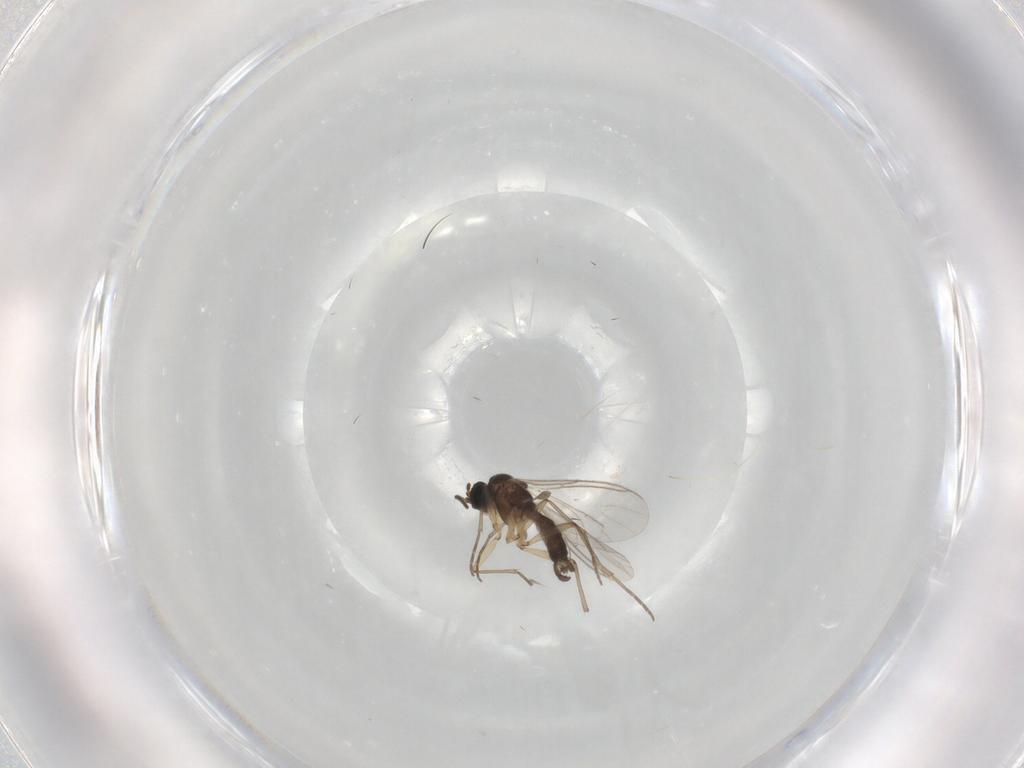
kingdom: Animalia
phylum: Arthropoda
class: Insecta
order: Diptera
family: Sciaridae
